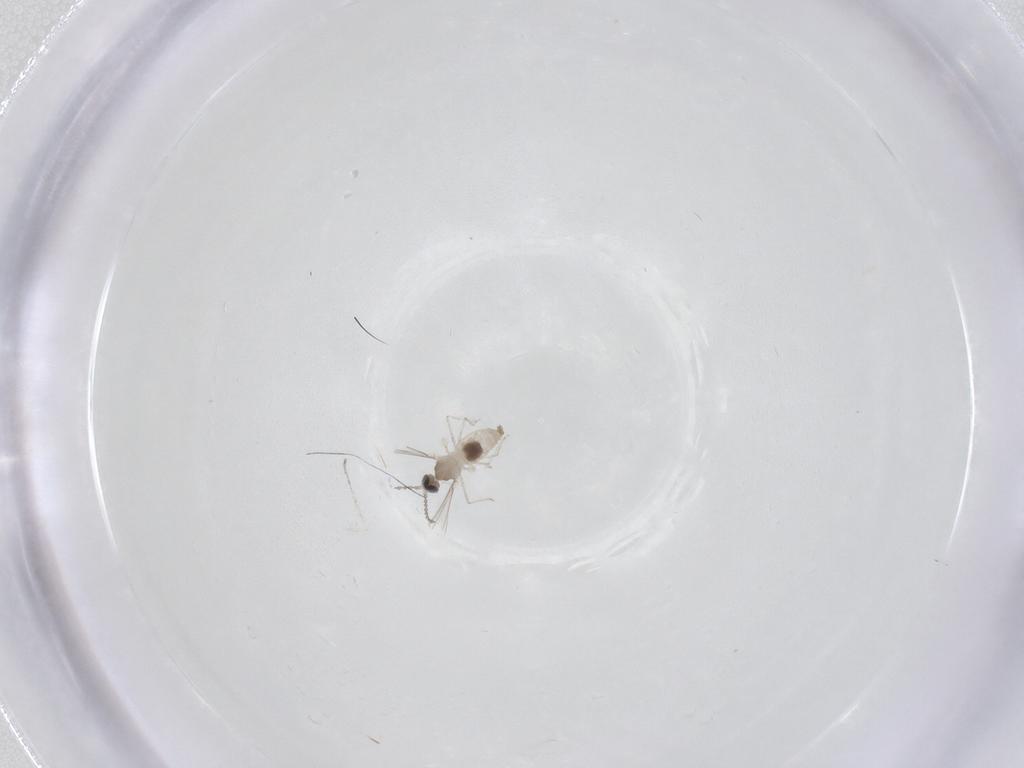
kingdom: Animalia
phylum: Arthropoda
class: Insecta
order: Diptera
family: Cecidomyiidae
